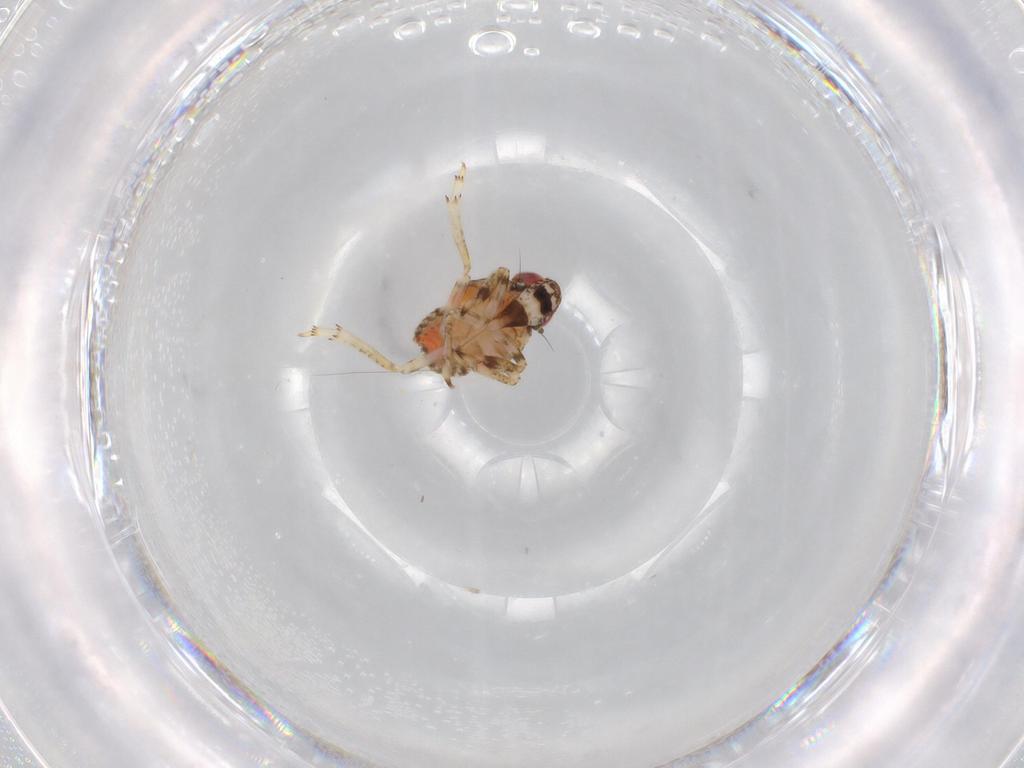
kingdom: Animalia
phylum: Arthropoda
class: Insecta
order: Hemiptera
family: Issidae
